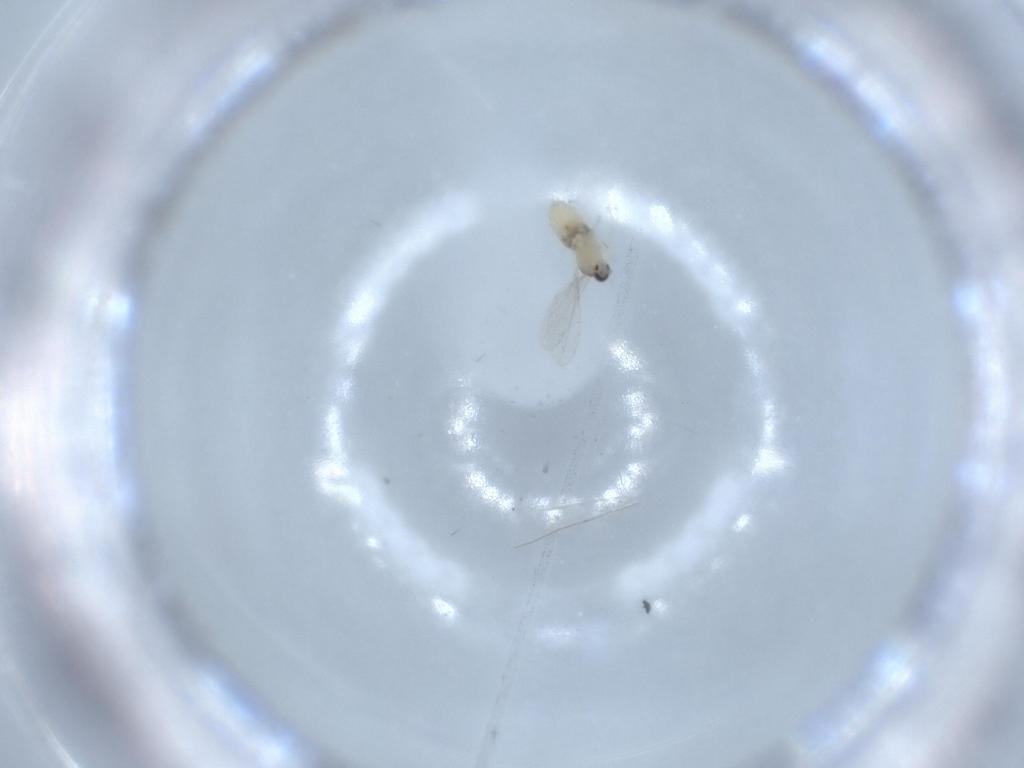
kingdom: Animalia
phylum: Arthropoda
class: Insecta
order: Diptera
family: Cecidomyiidae
